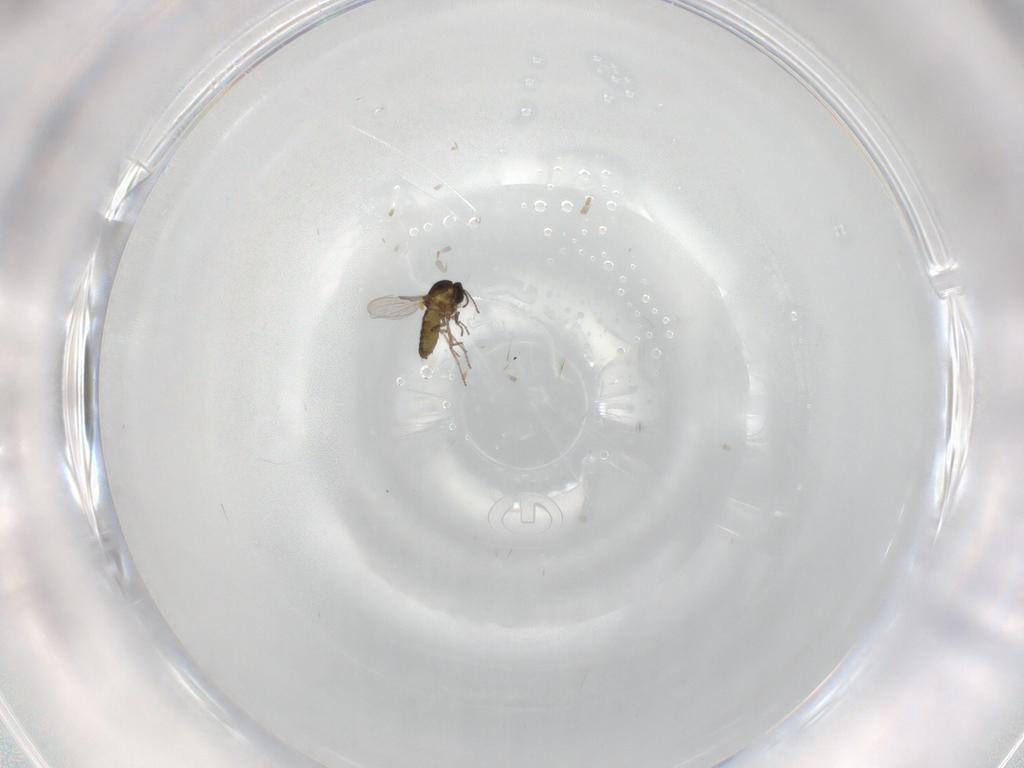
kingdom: Animalia
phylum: Arthropoda
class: Insecta
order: Diptera
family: Ceratopogonidae
